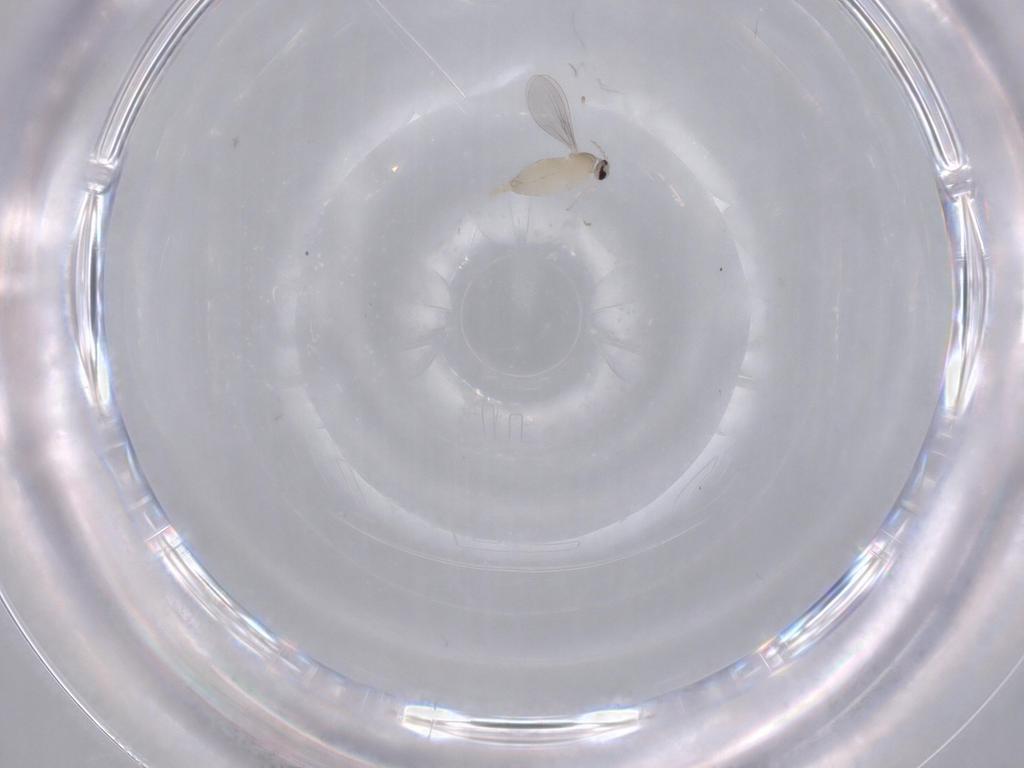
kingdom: Animalia
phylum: Arthropoda
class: Insecta
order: Diptera
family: Cecidomyiidae
